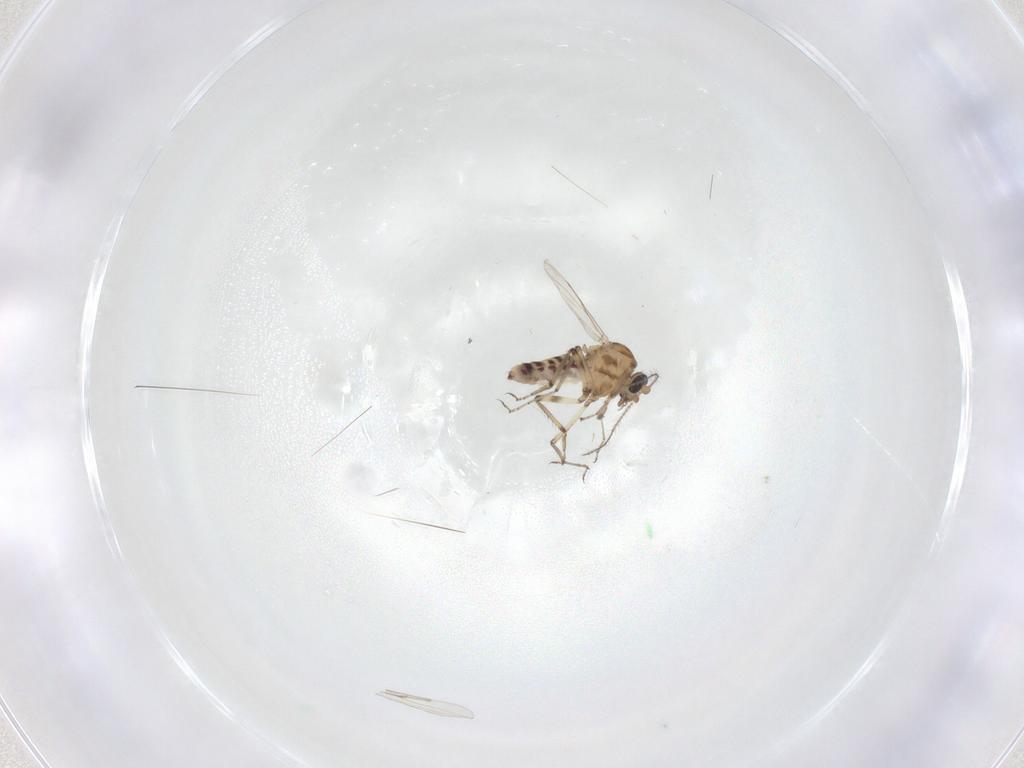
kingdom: Animalia
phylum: Arthropoda
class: Insecta
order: Diptera
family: Ceratopogonidae
